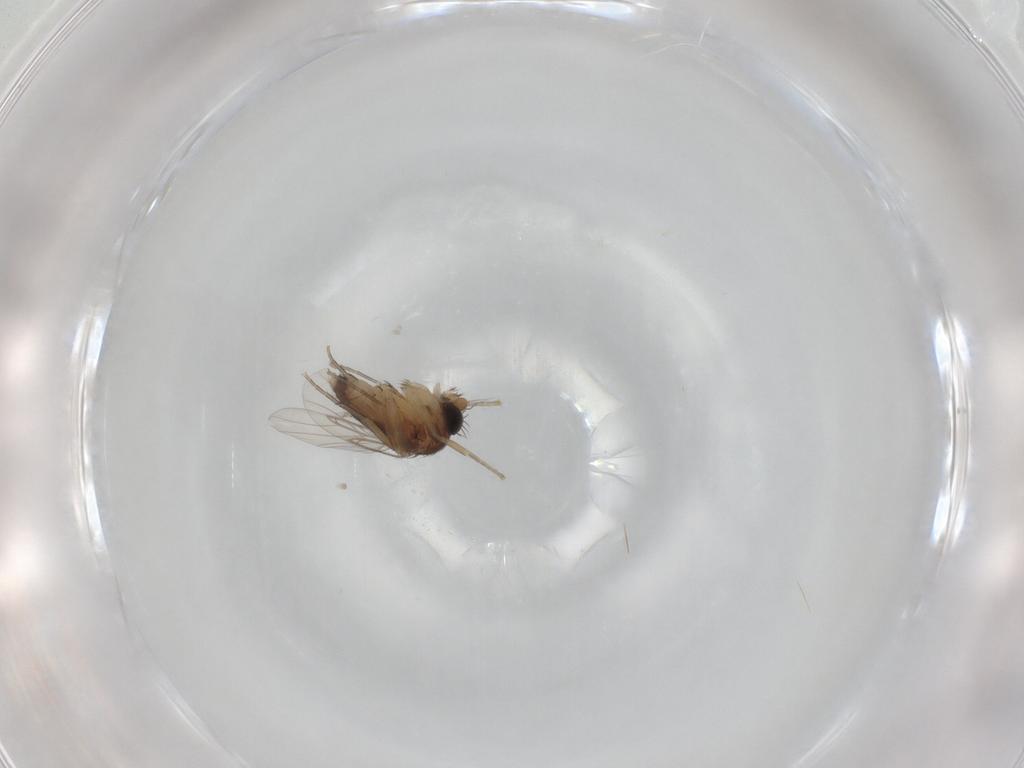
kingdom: Animalia
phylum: Arthropoda
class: Insecta
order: Diptera
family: Phoridae
